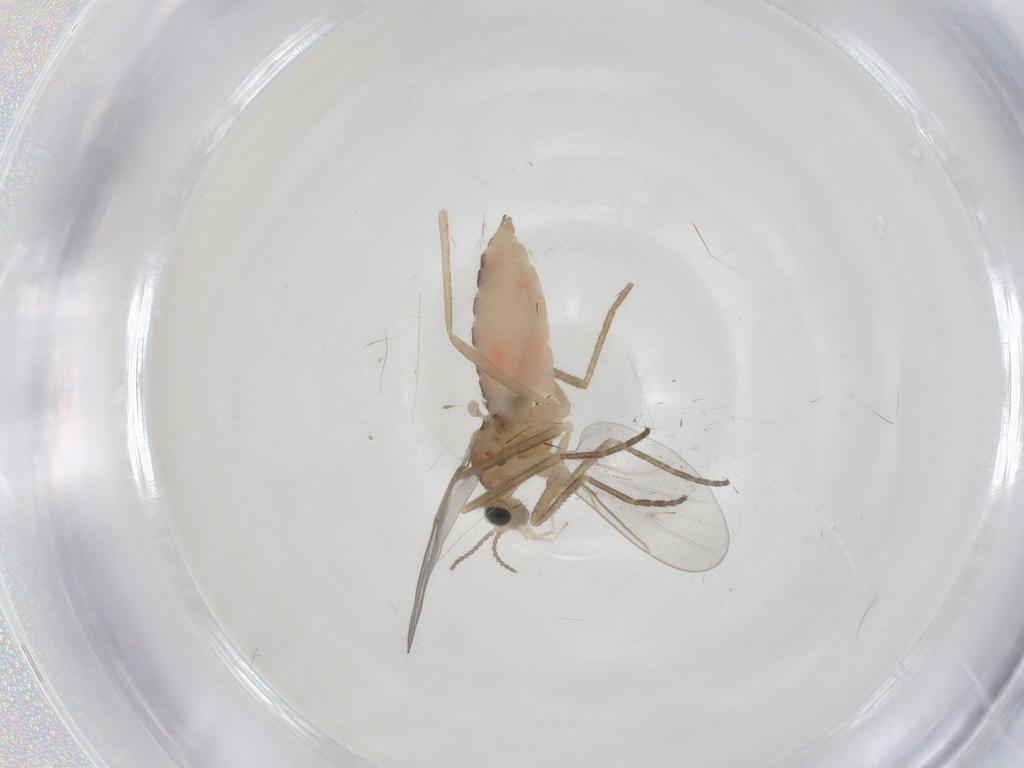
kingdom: Animalia
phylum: Arthropoda
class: Insecta
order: Diptera
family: Cecidomyiidae
